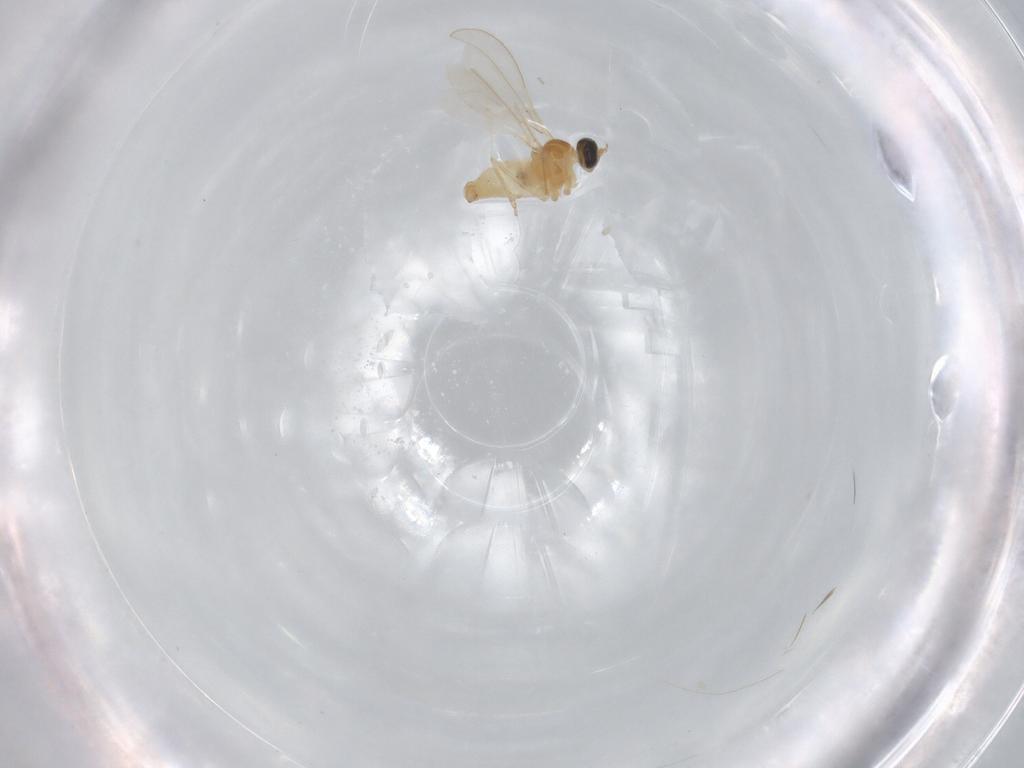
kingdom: Animalia
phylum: Arthropoda
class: Insecta
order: Diptera
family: Cecidomyiidae
